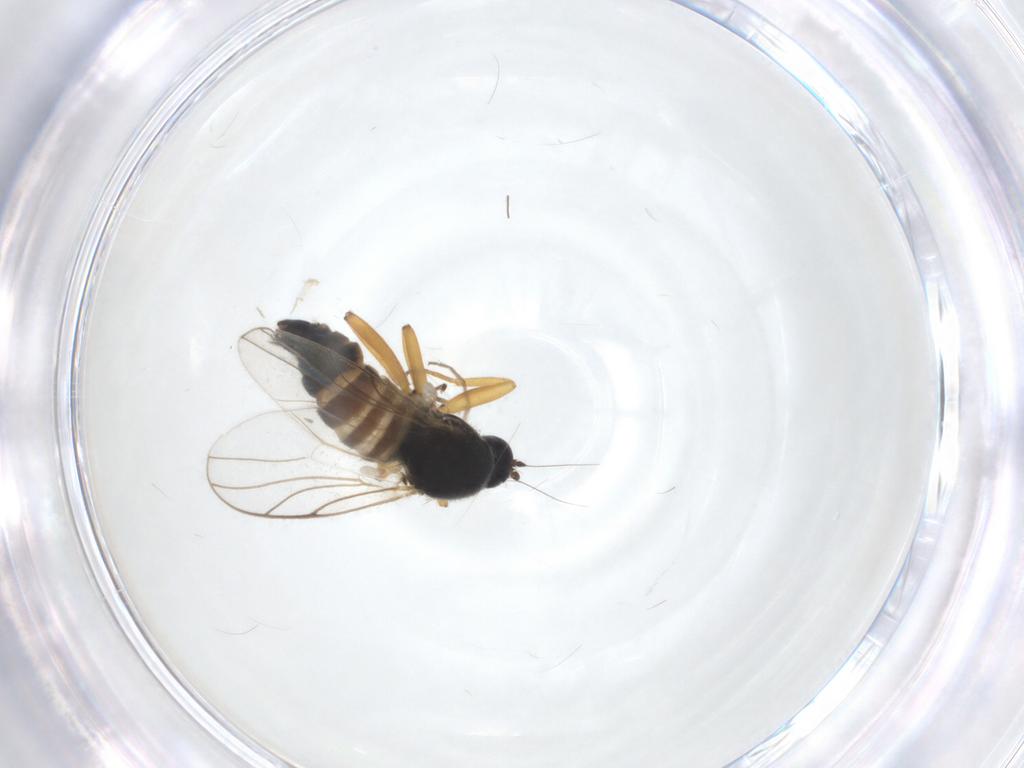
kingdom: Animalia
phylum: Arthropoda
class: Insecta
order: Diptera
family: Hybotidae
